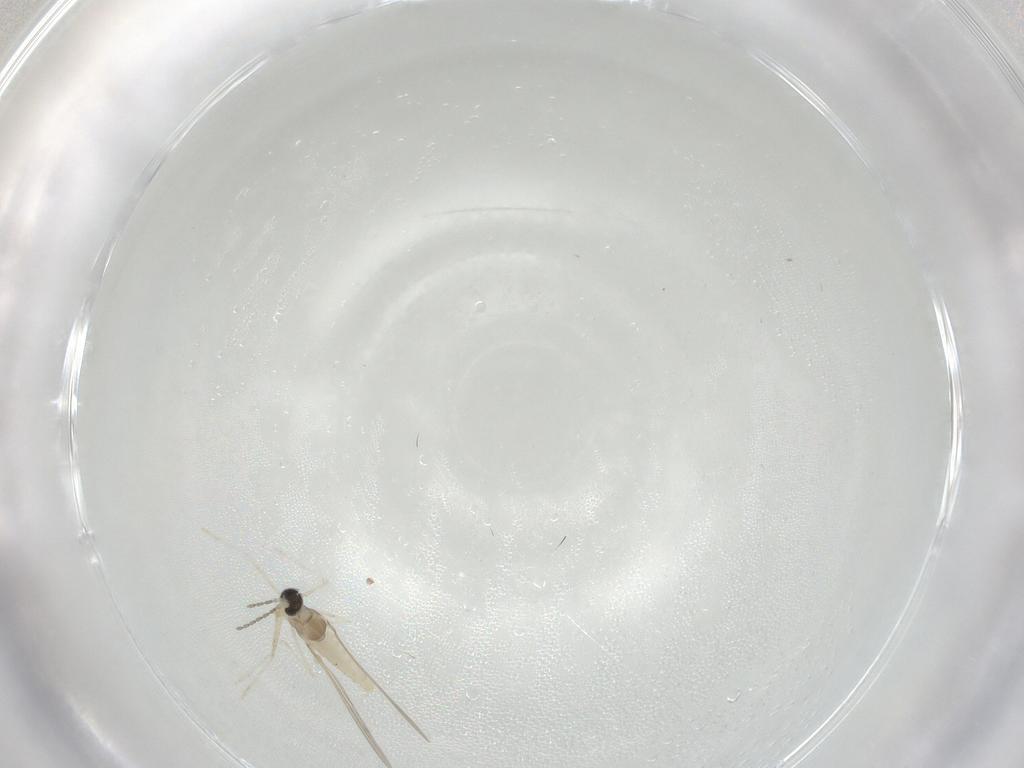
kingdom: Animalia
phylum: Arthropoda
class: Insecta
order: Diptera
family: Cecidomyiidae
